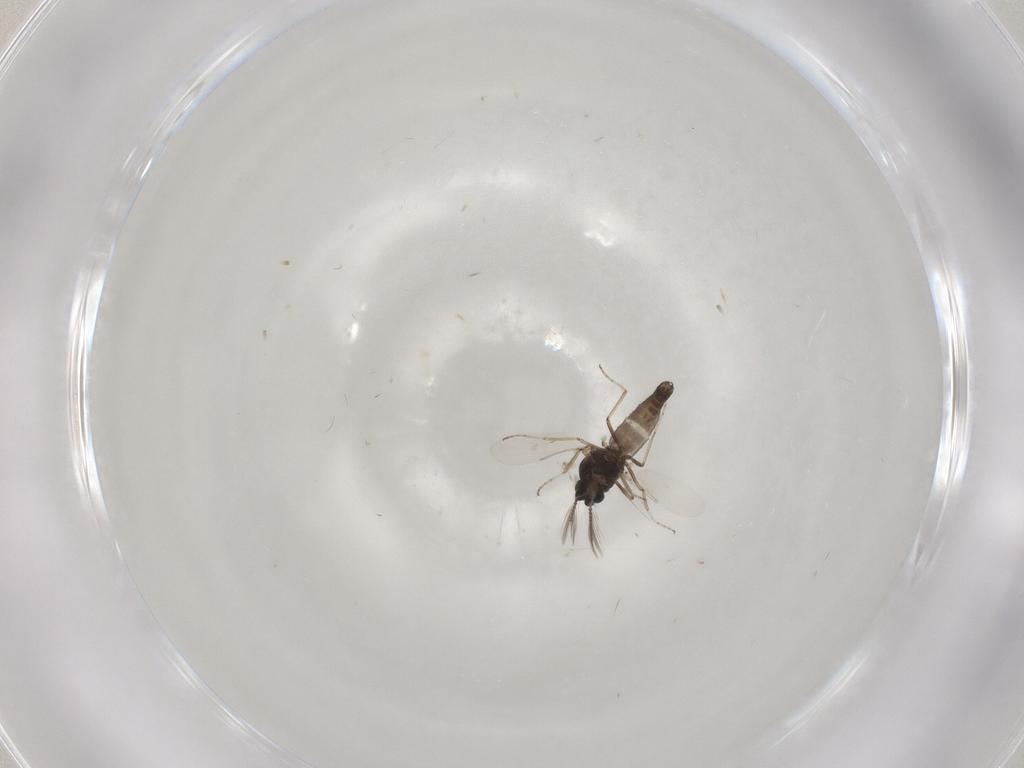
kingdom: Animalia
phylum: Arthropoda
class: Insecta
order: Diptera
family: Ceratopogonidae
